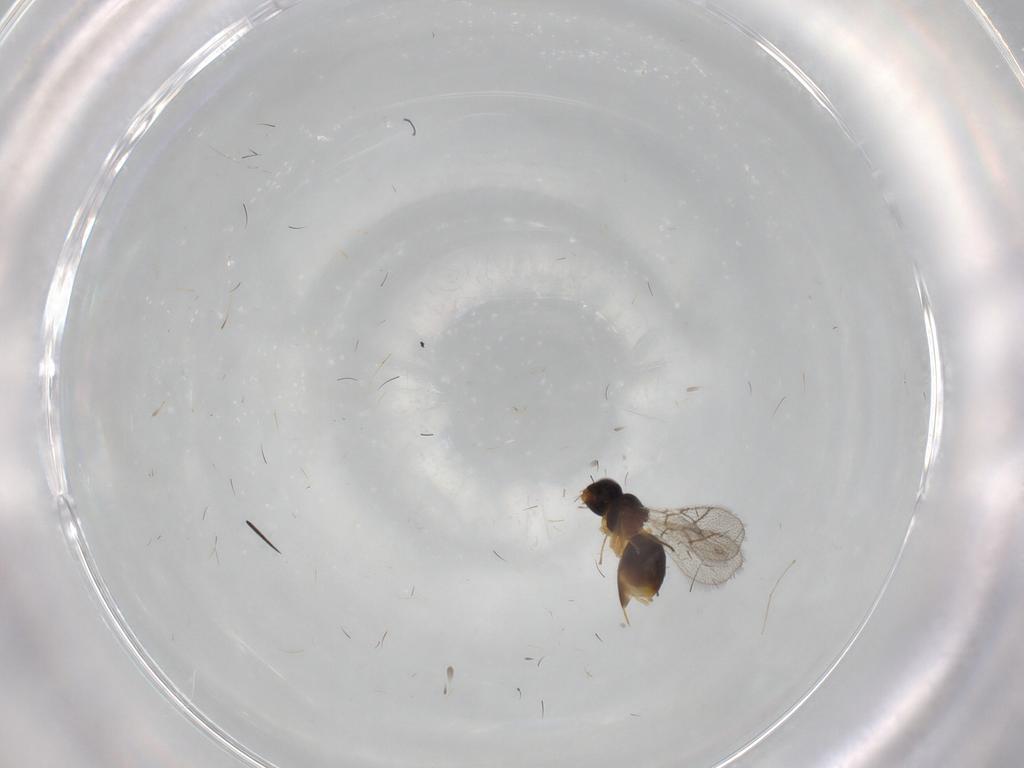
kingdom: Animalia
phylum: Arthropoda
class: Insecta
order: Hymenoptera
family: Figitidae
